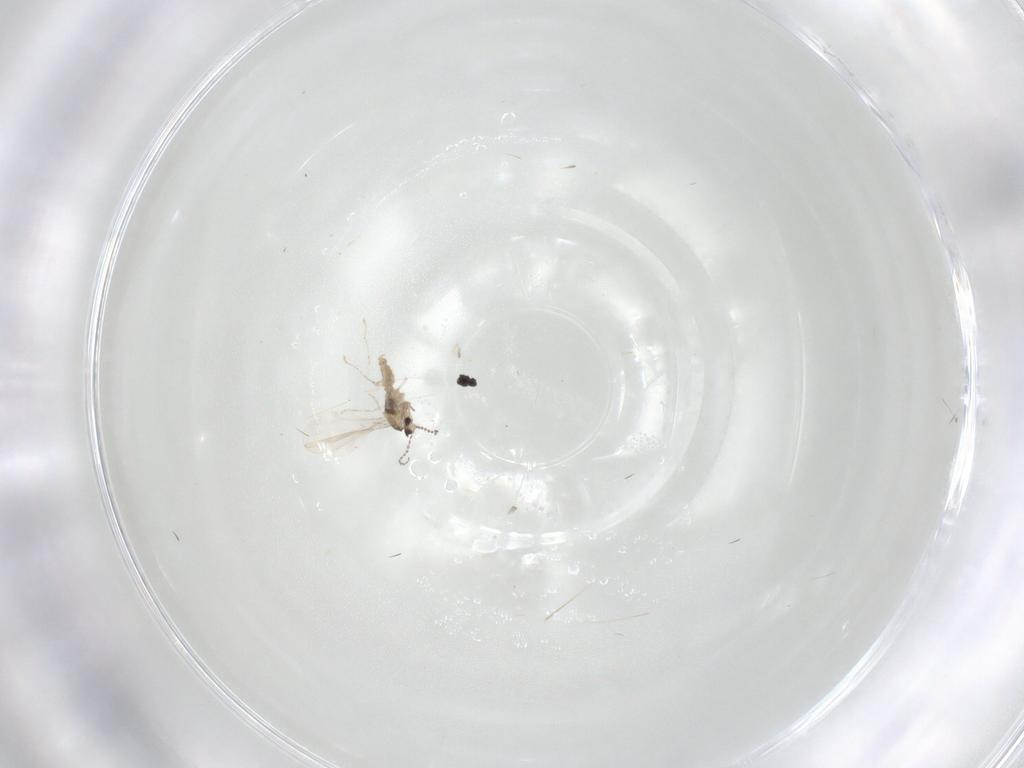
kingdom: Animalia
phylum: Arthropoda
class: Insecta
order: Diptera
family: Cecidomyiidae
